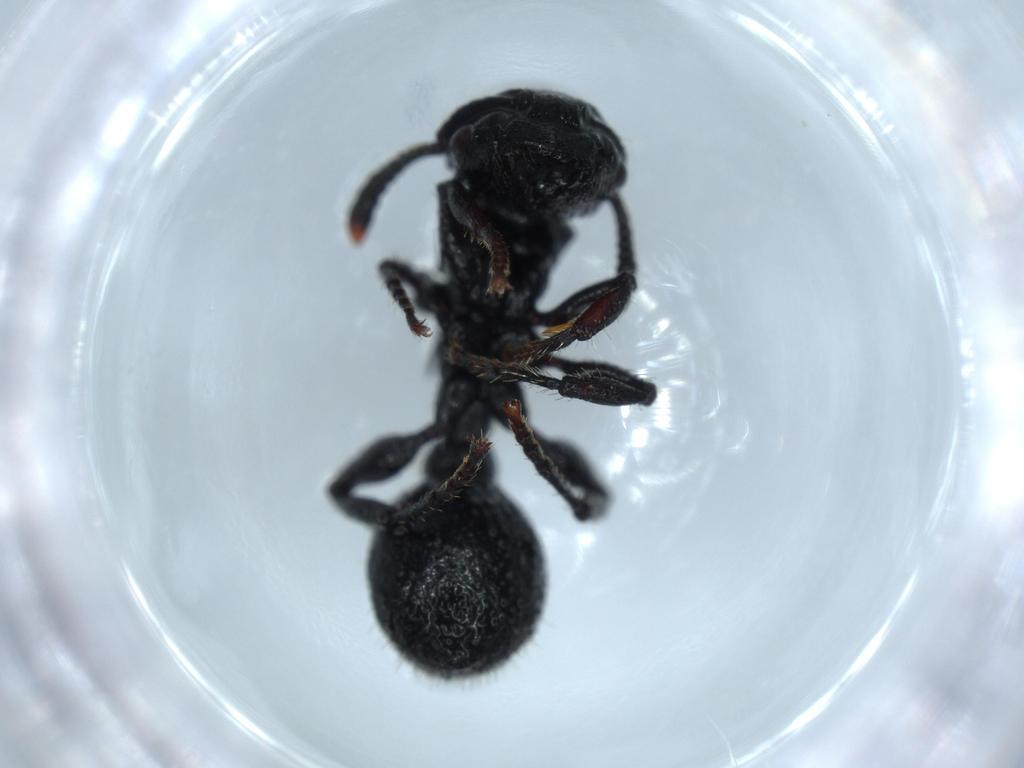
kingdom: Animalia
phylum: Arthropoda
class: Insecta
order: Hymenoptera
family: Formicidae
